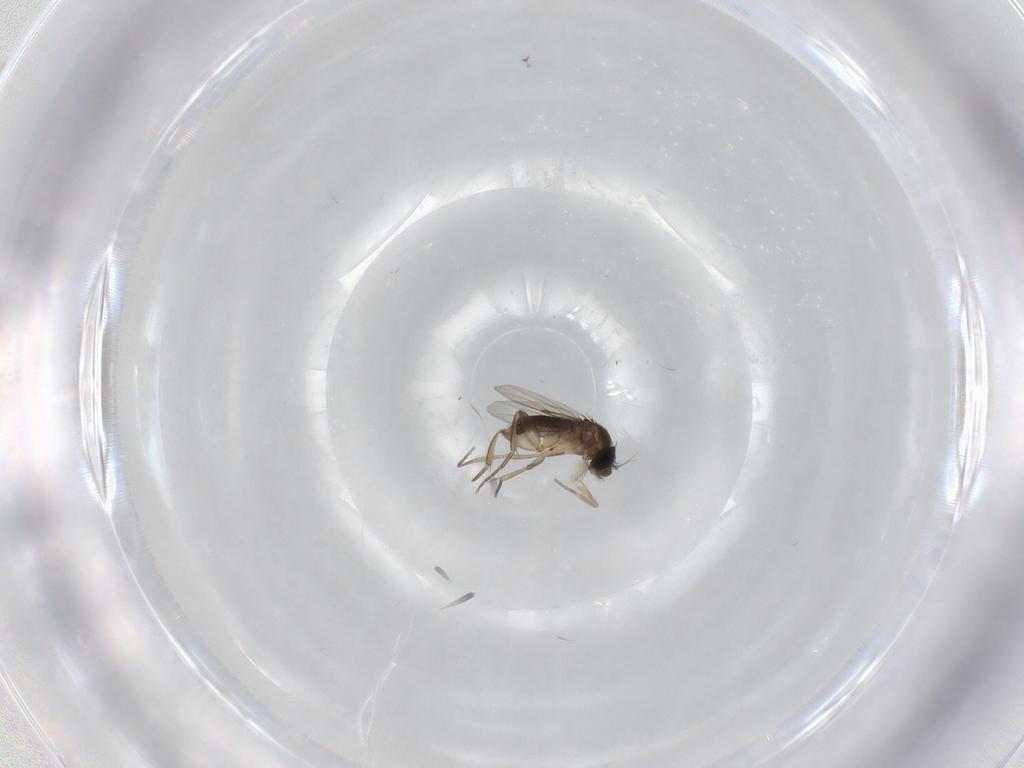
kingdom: Animalia
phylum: Arthropoda
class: Insecta
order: Diptera
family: Phoridae
